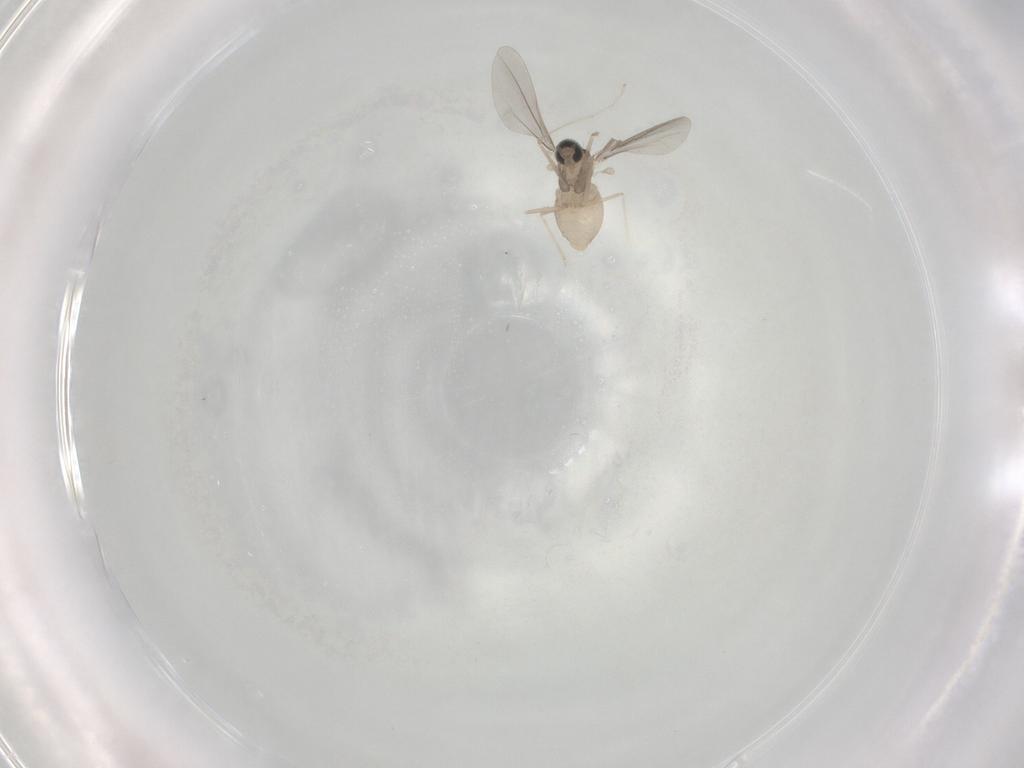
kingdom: Animalia
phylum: Arthropoda
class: Insecta
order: Diptera
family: Cecidomyiidae
